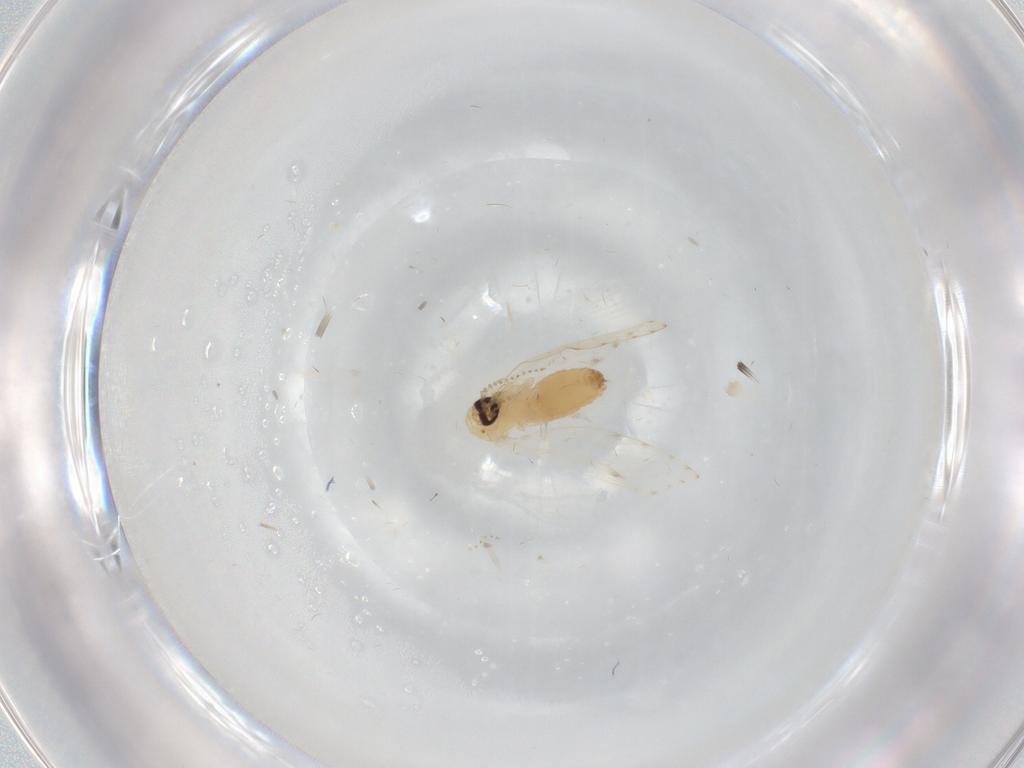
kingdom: Animalia
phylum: Arthropoda
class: Insecta
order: Diptera
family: Psychodidae
